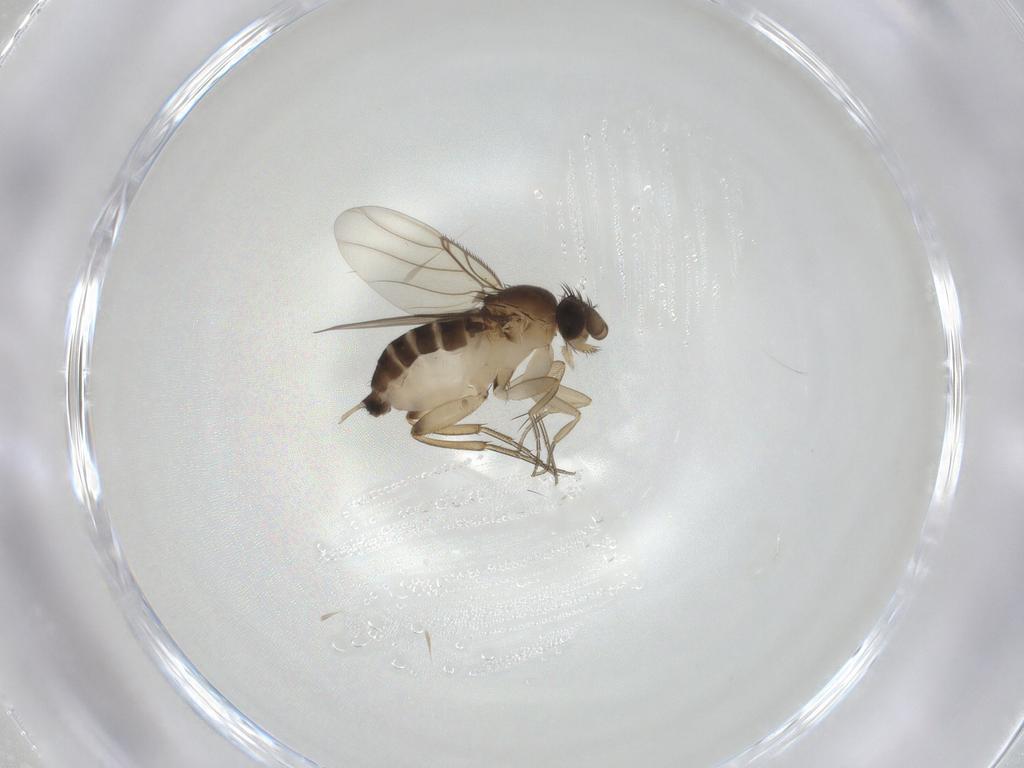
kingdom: Animalia
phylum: Arthropoda
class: Insecta
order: Diptera
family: Phoridae
